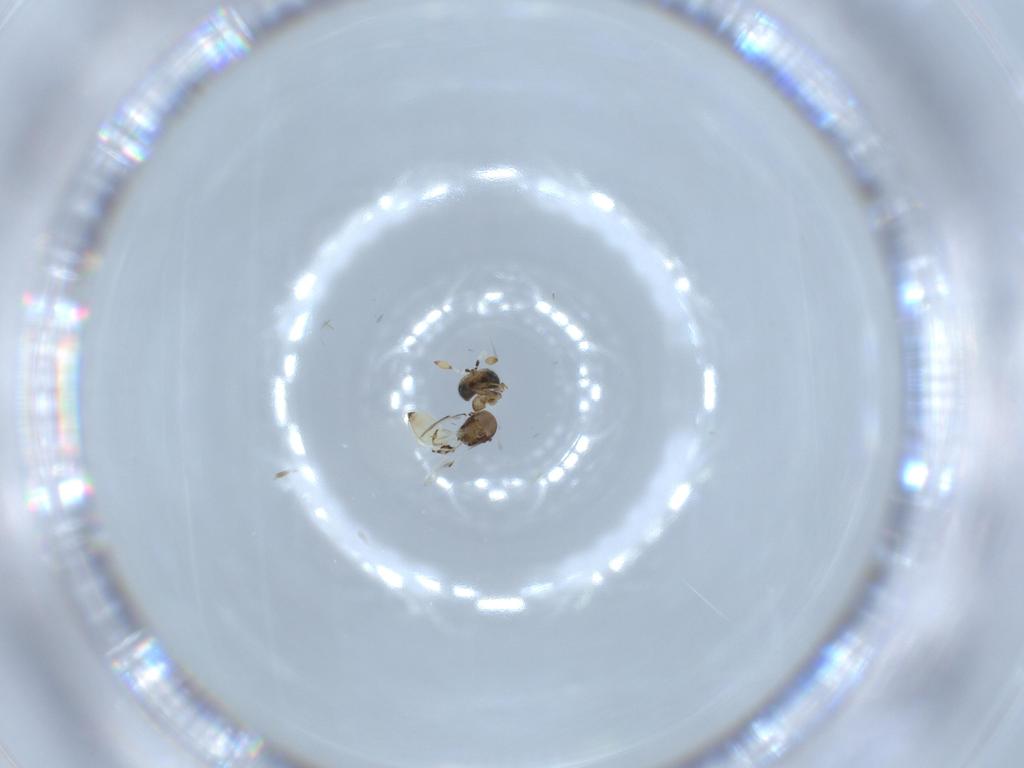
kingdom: Animalia
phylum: Arthropoda
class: Insecta
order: Hymenoptera
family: Scelionidae
